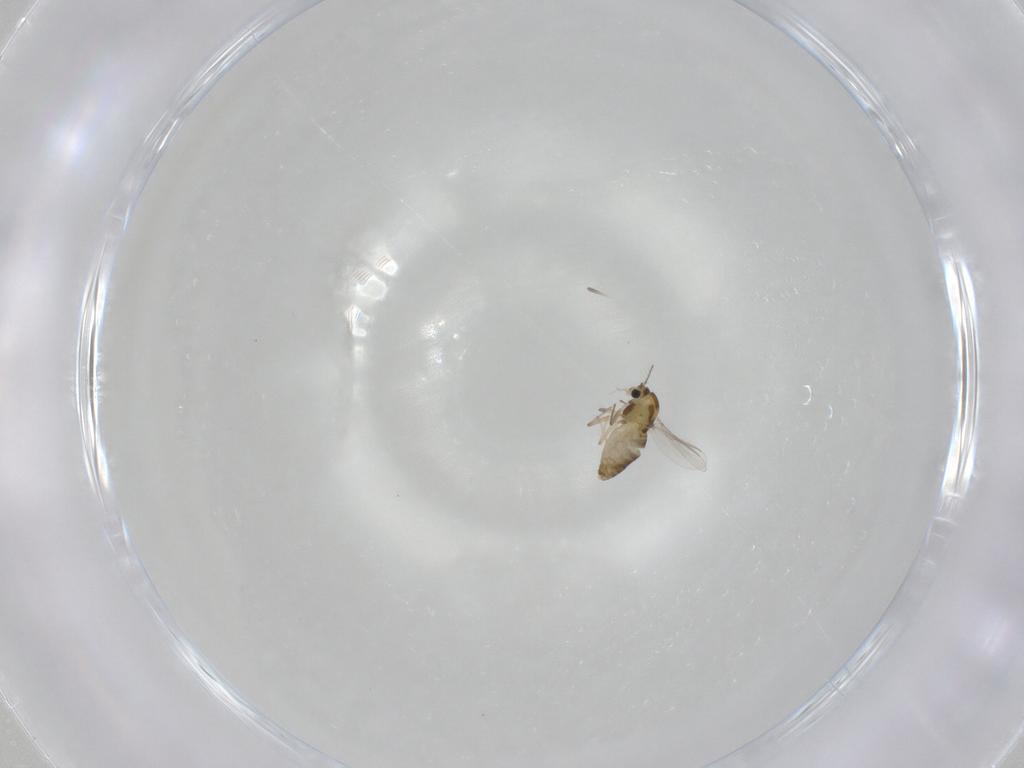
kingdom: Animalia
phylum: Arthropoda
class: Insecta
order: Diptera
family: Chironomidae
